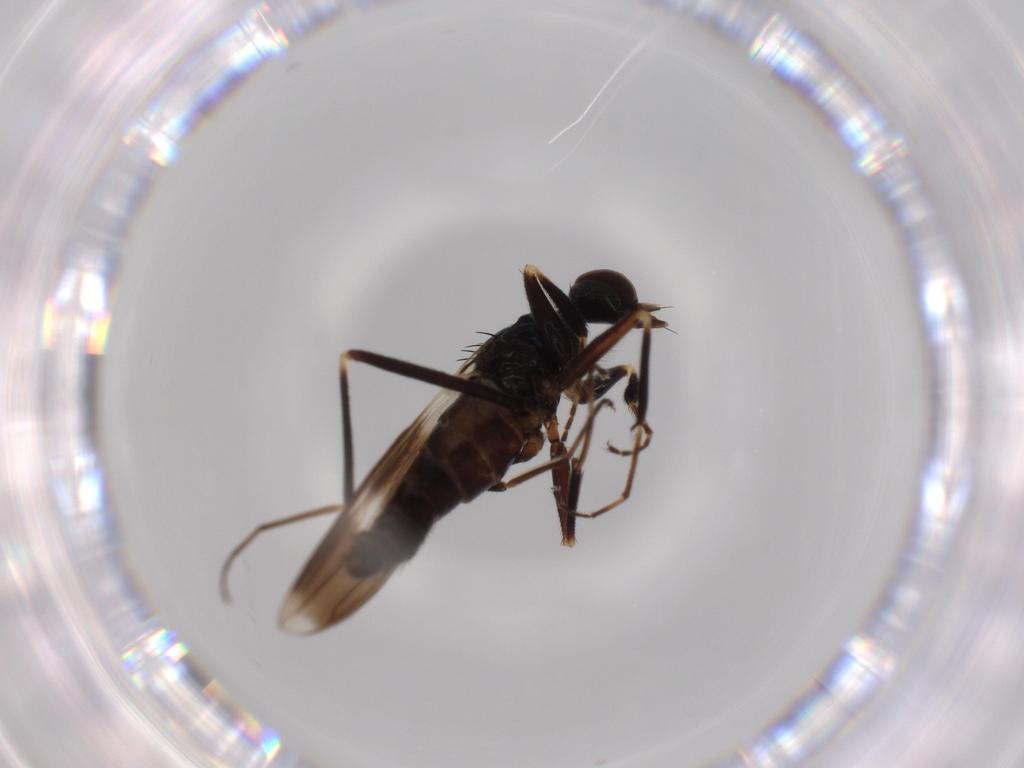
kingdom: Animalia
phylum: Arthropoda
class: Insecta
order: Diptera
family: Hybotidae
